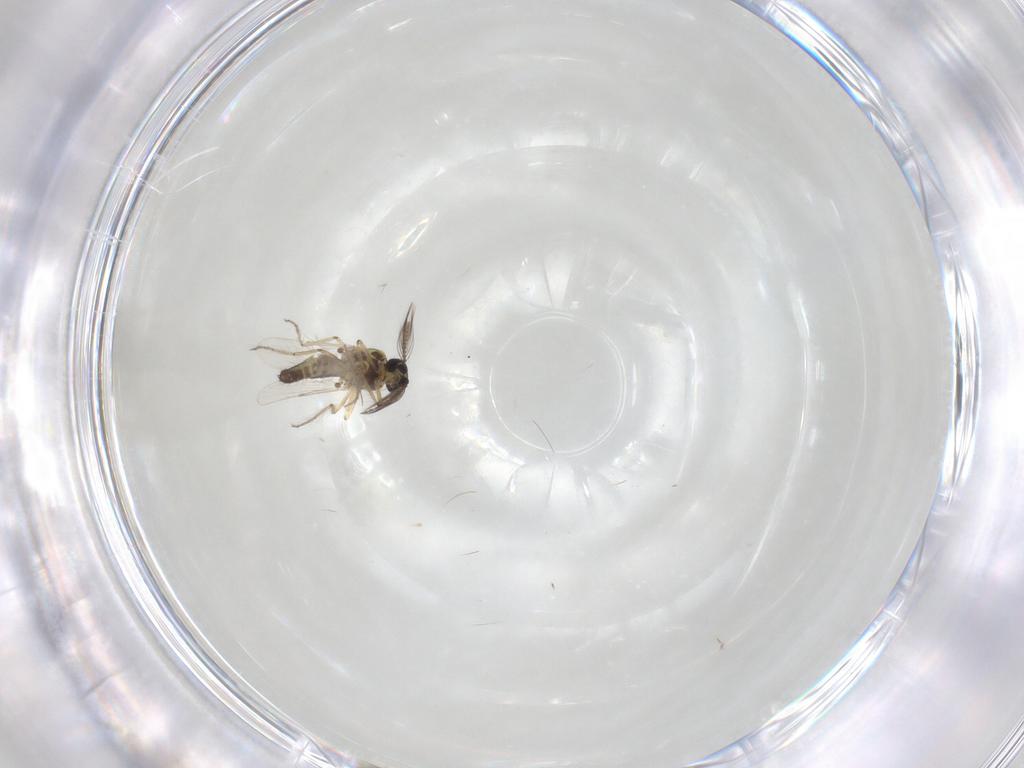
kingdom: Animalia
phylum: Arthropoda
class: Insecta
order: Diptera
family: Ceratopogonidae
